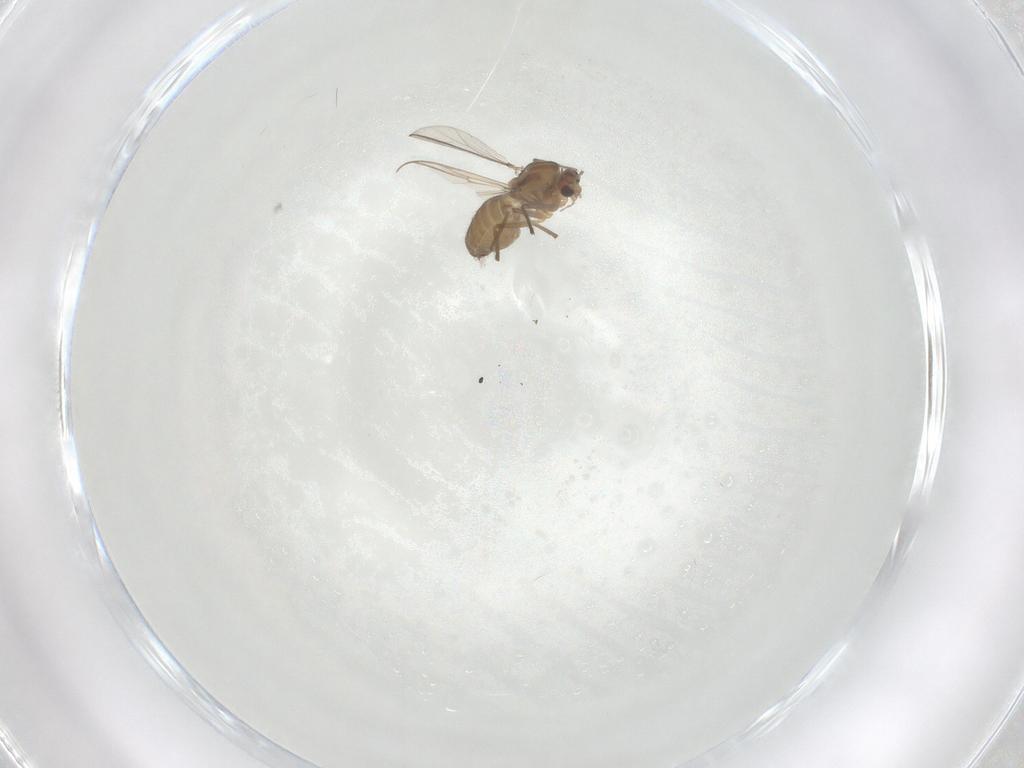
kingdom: Animalia
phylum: Arthropoda
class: Insecta
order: Diptera
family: Chironomidae
